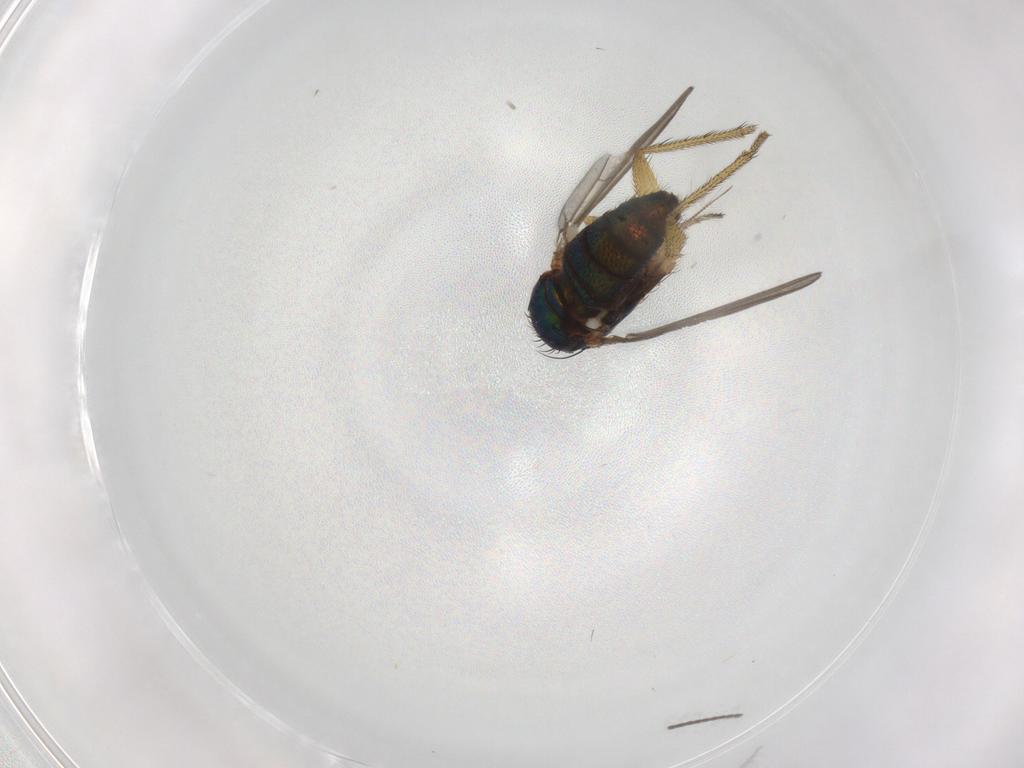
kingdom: Animalia
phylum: Arthropoda
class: Insecta
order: Diptera
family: Sciaridae
